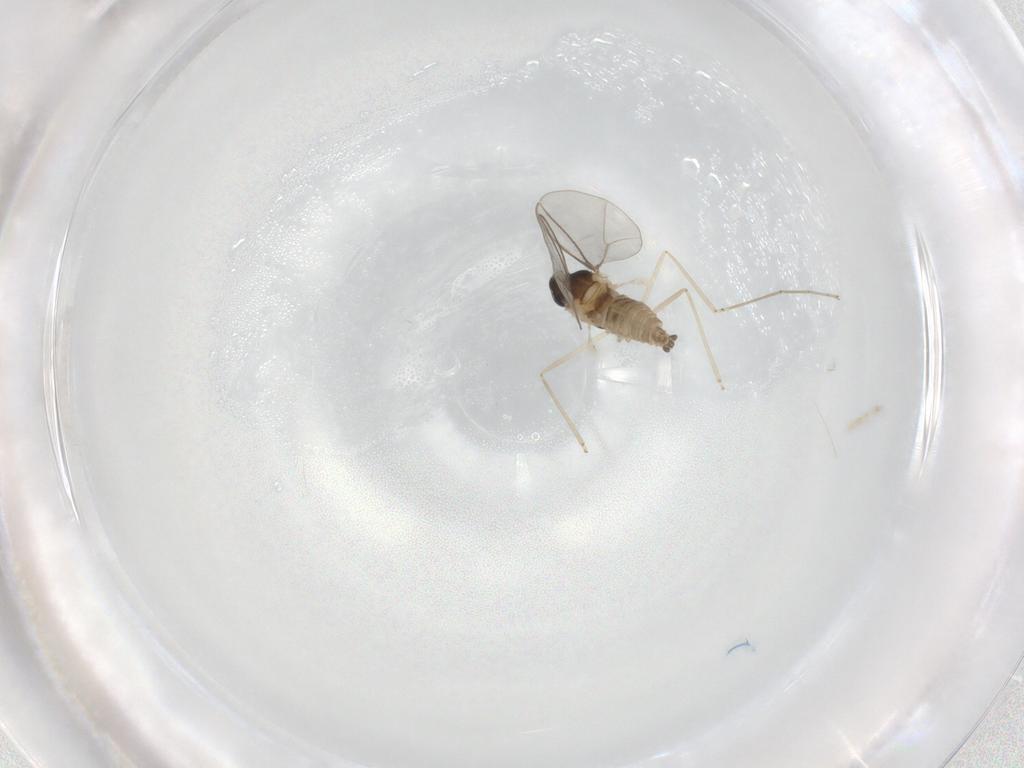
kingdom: Animalia
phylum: Arthropoda
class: Insecta
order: Diptera
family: Cecidomyiidae
